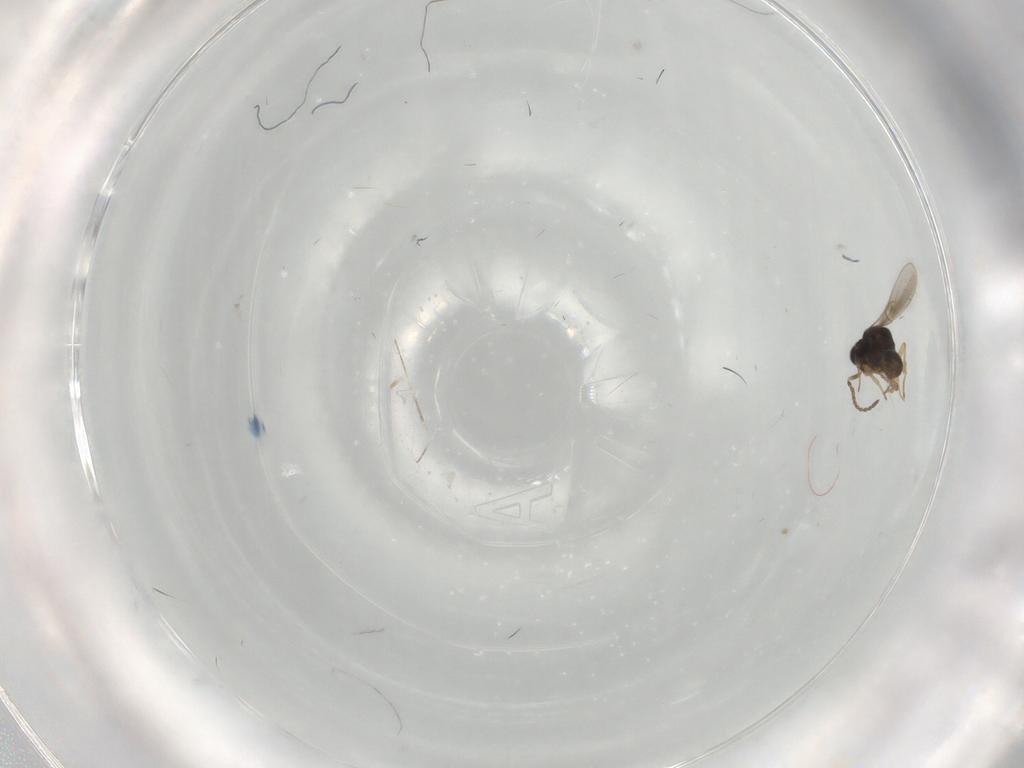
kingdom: Animalia
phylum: Arthropoda
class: Insecta
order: Hymenoptera
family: Scelionidae
